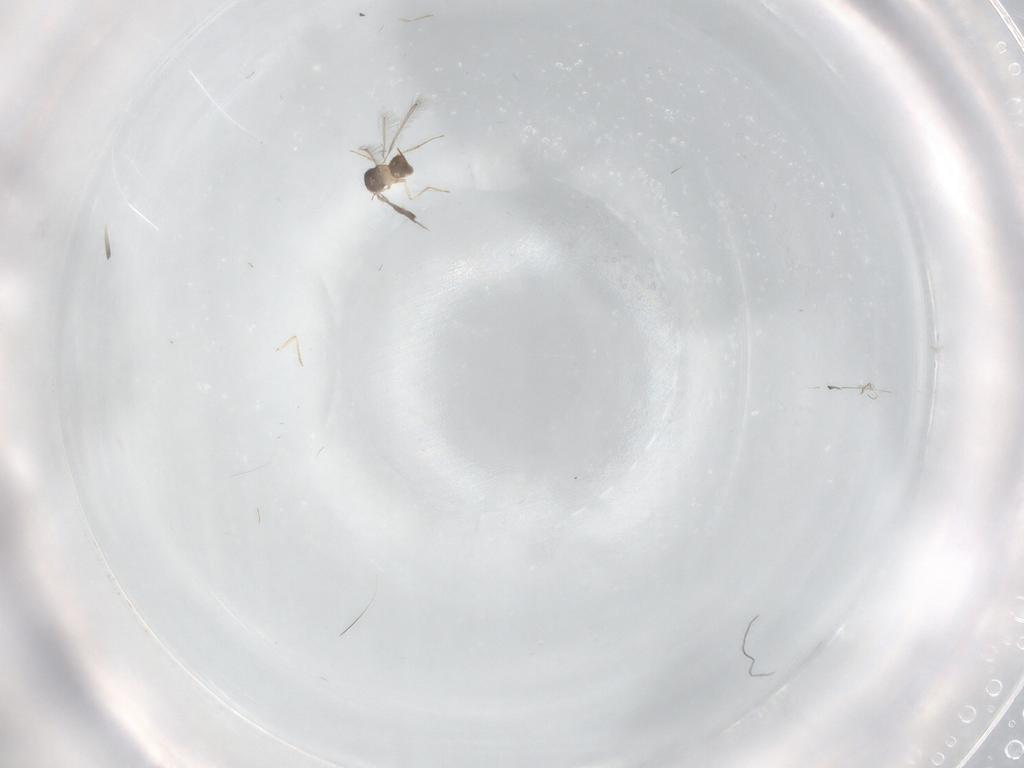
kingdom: Animalia
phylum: Arthropoda
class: Insecta
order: Hymenoptera
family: Mymaridae
